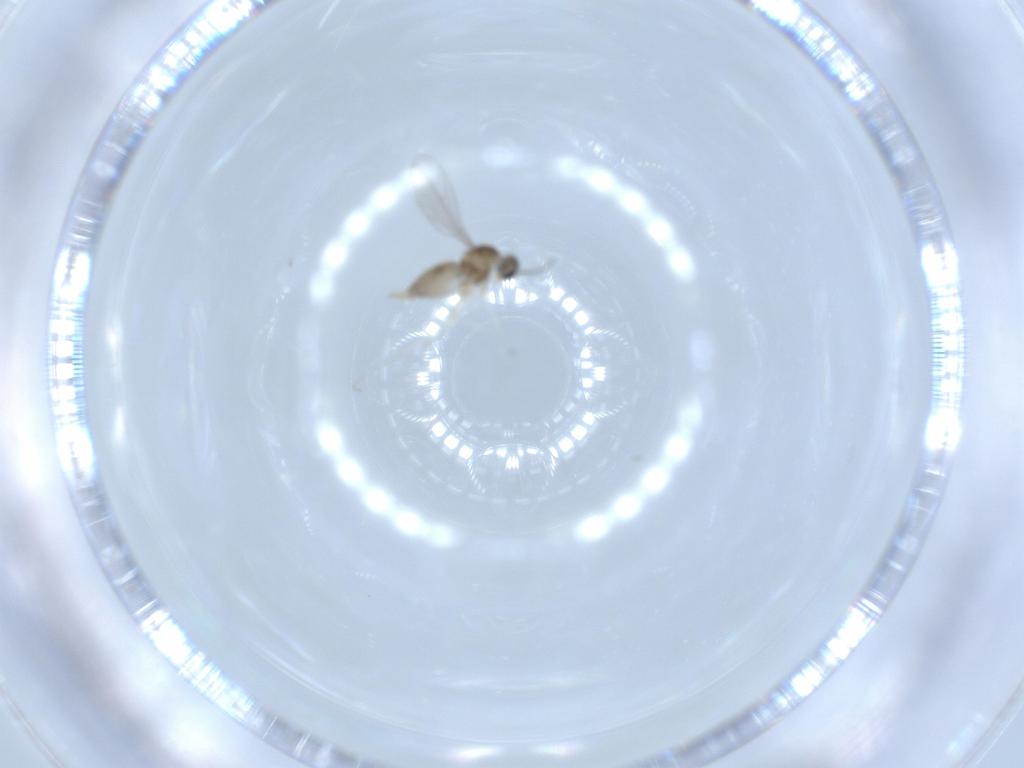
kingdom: Animalia
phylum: Arthropoda
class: Insecta
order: Diptera
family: Cecidomyiidae
